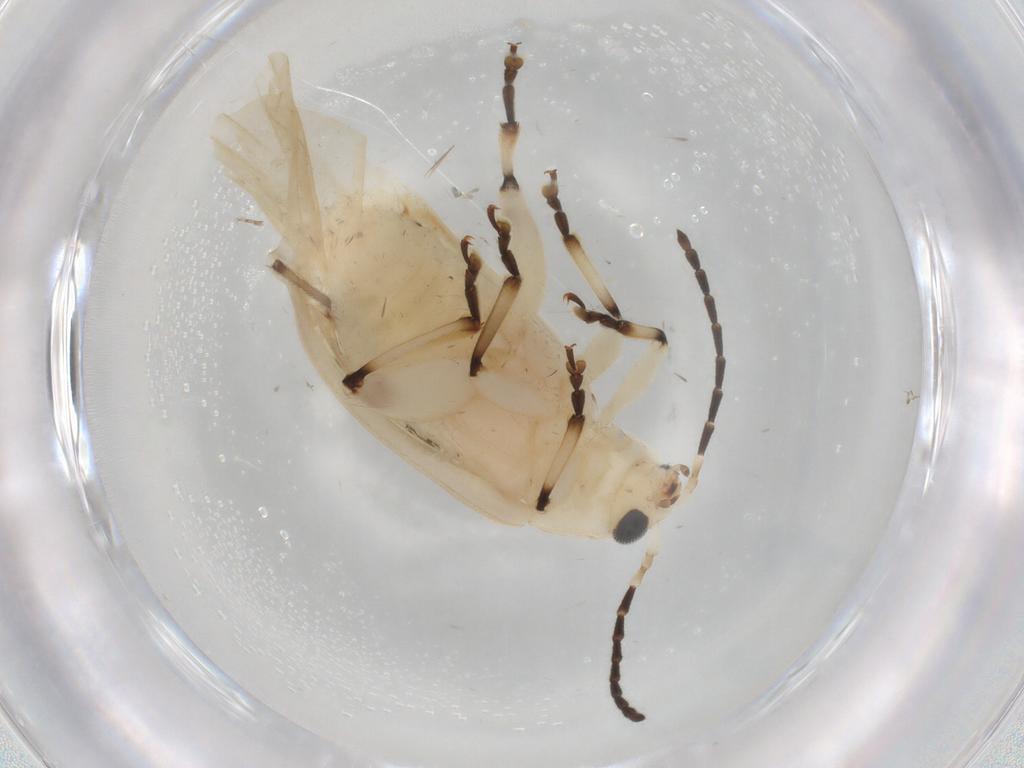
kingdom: Animalia
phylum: Arthropoda
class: Insecta
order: Coleoptera
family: Chrysomelidae
